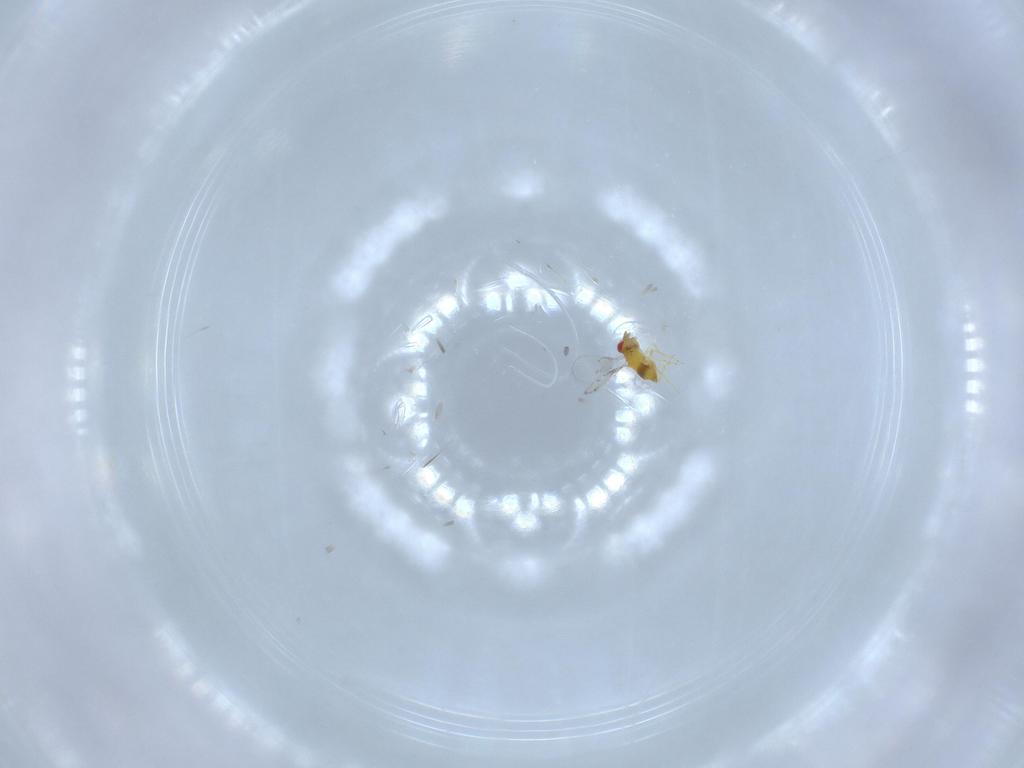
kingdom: Animalia
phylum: Arthropoda
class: Insecta
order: Hymenoptera
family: Trichogrammatidae
